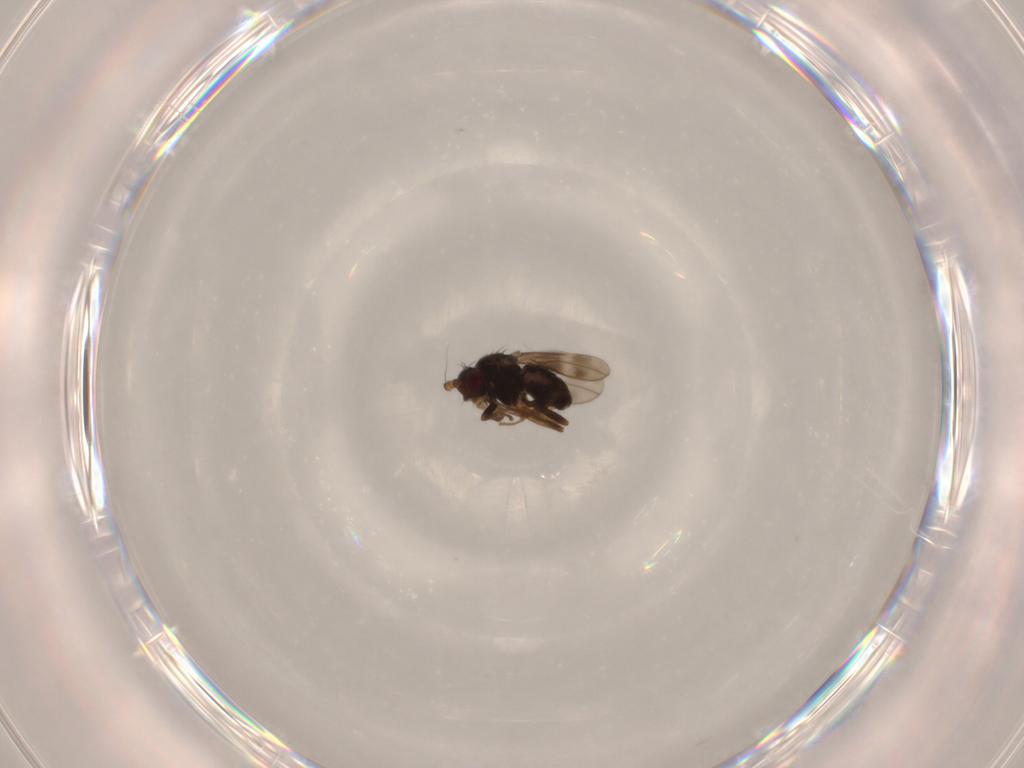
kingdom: Animalia
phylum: Arthropoda
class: Insecta
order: Diptera
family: Sphaeroceridae
